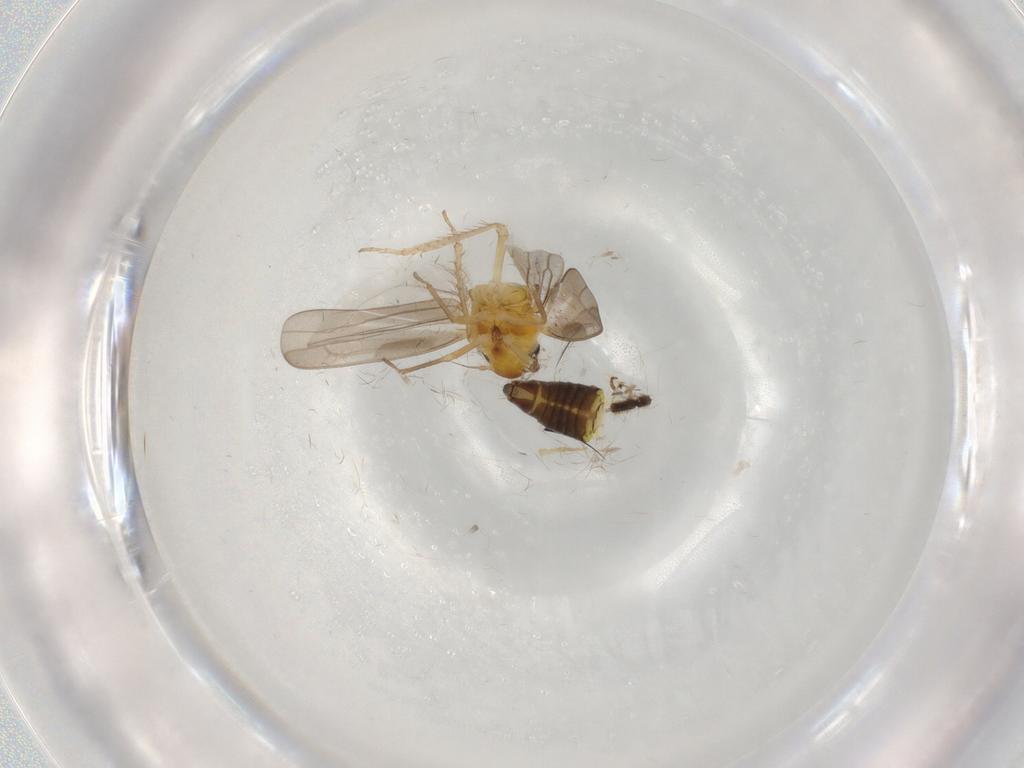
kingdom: Animalia
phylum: Arthropoda
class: Insecta
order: Hemiptera
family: Cicadellidae
